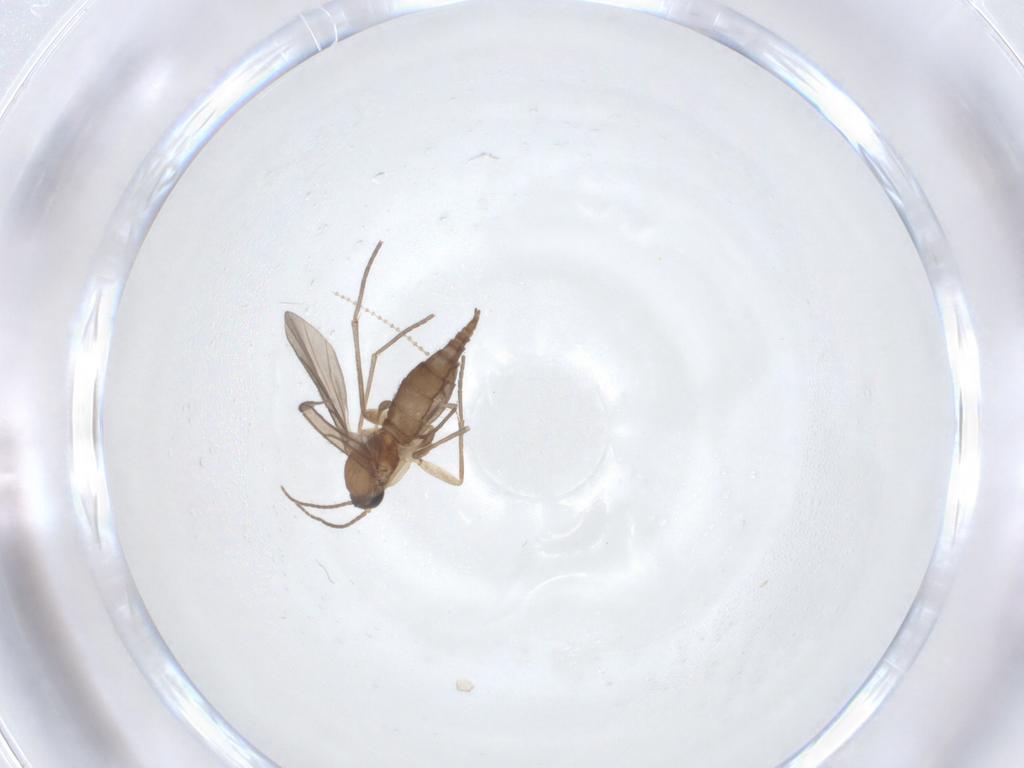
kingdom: Animalia
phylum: Arthropoda
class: Insecta
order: Diptera
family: Sciaridae
